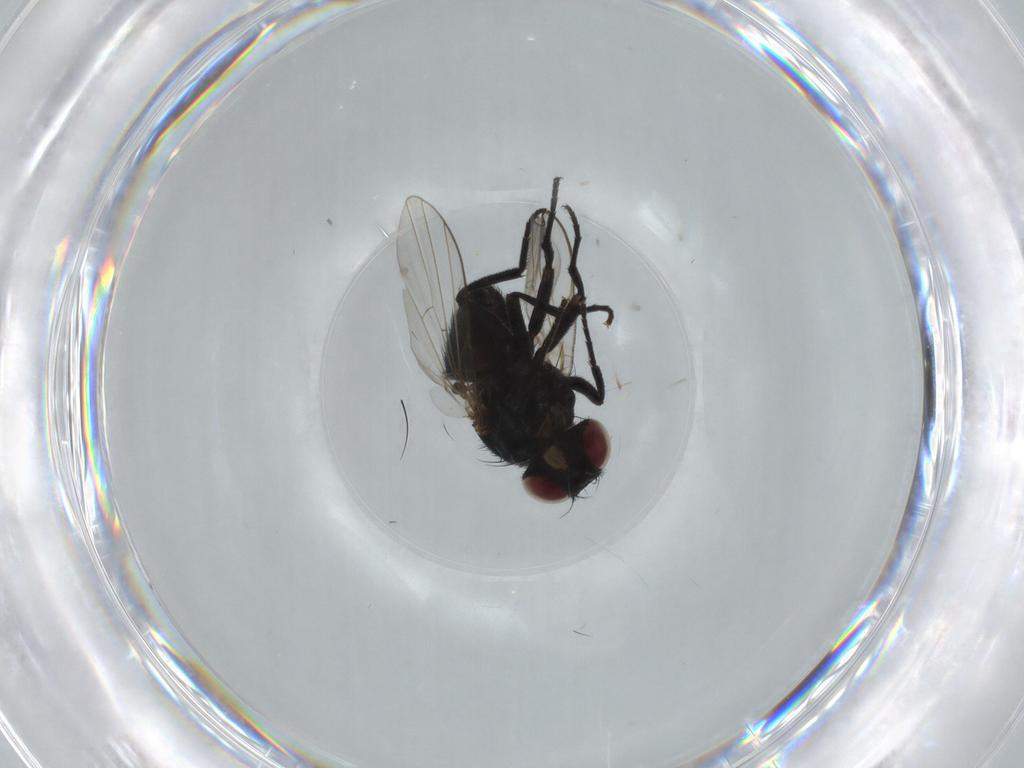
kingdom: Animalia
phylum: Arthropoda
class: Insecta
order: Diptera
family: Agromyzidae
